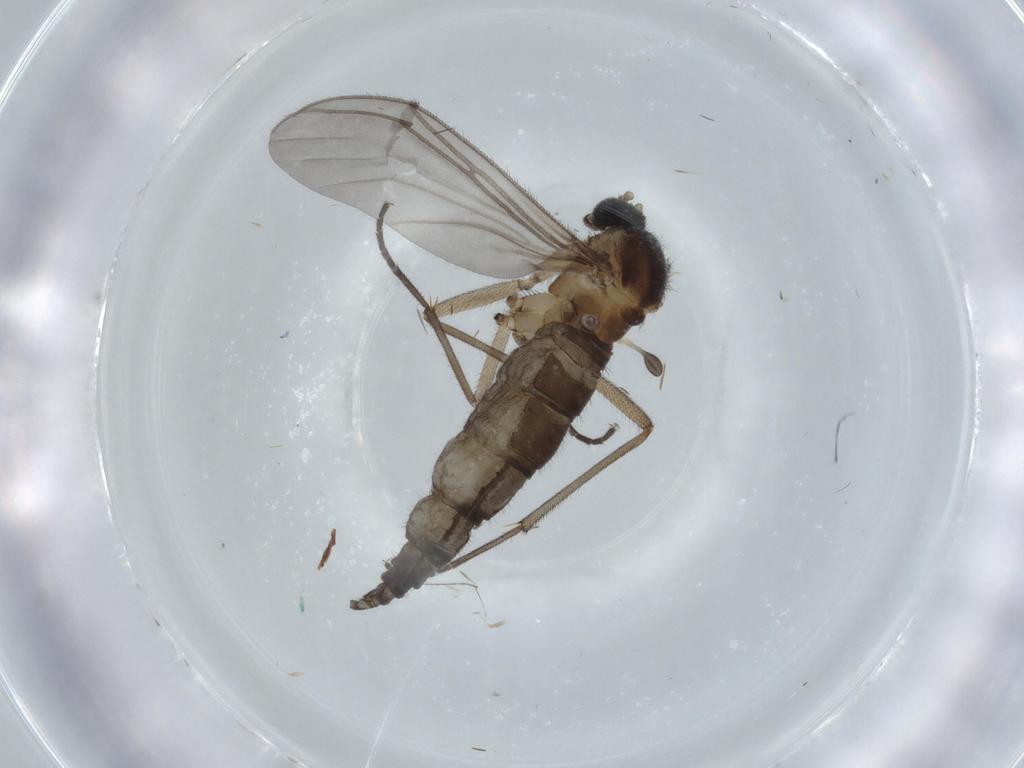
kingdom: Animalia
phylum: Arthropoda
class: Insecta
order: Diptera
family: Sciaridae
